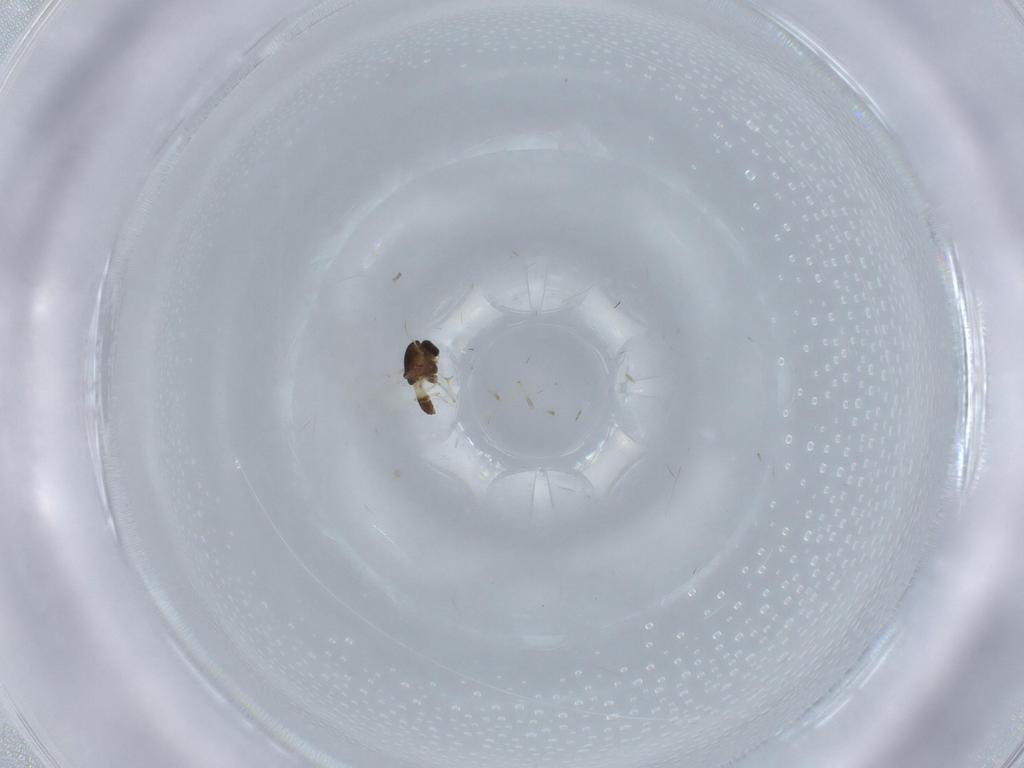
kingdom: Animalia
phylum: Arthropoda
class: Insecta
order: Diptera
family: Chironomidae
